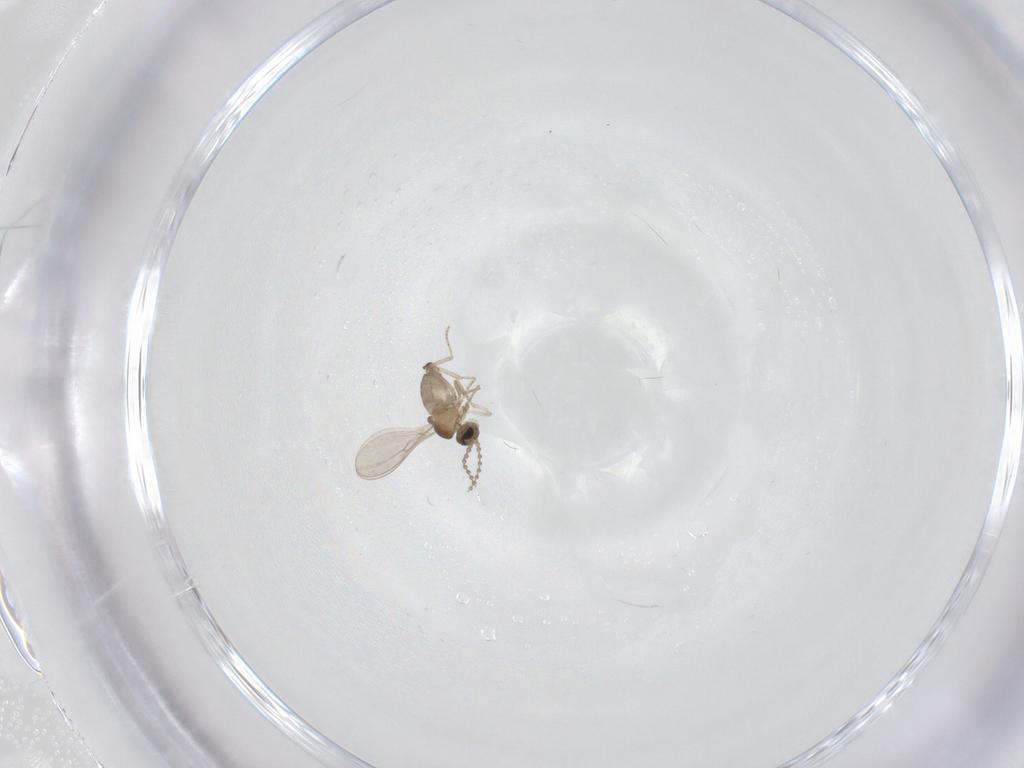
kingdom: Animalia
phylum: Arthropoda
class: Insecta
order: Diptera
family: Cecidomyiidae
